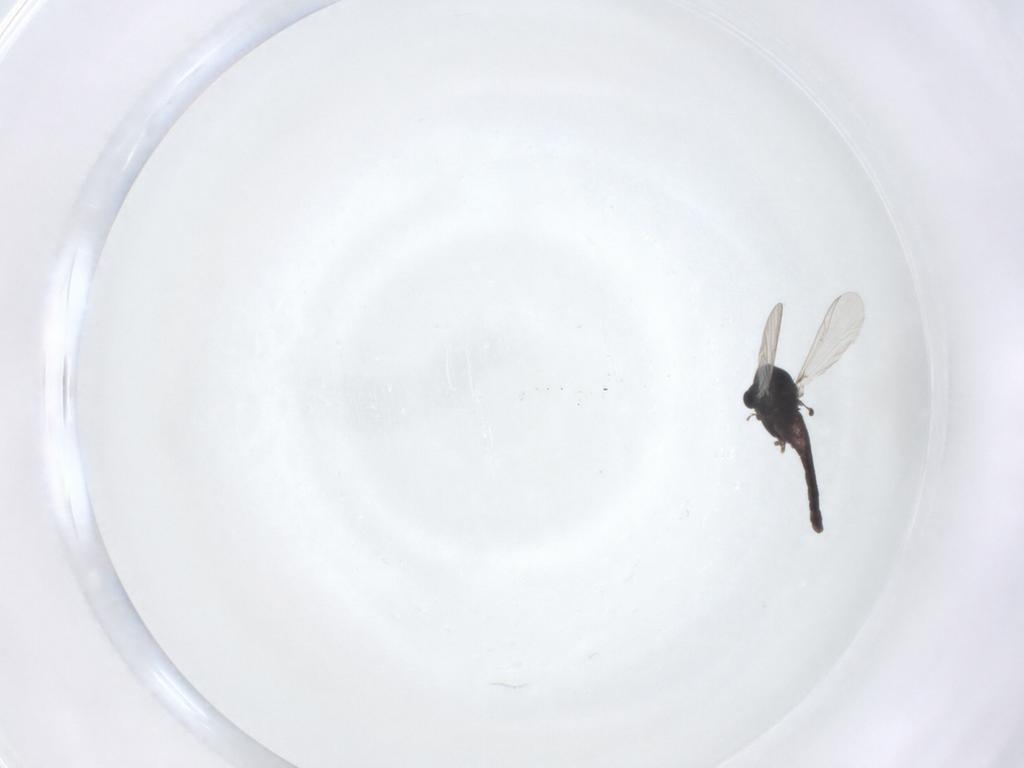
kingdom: Animalia
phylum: Arthropoda
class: Insecta
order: Diptera
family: Chironomidae
